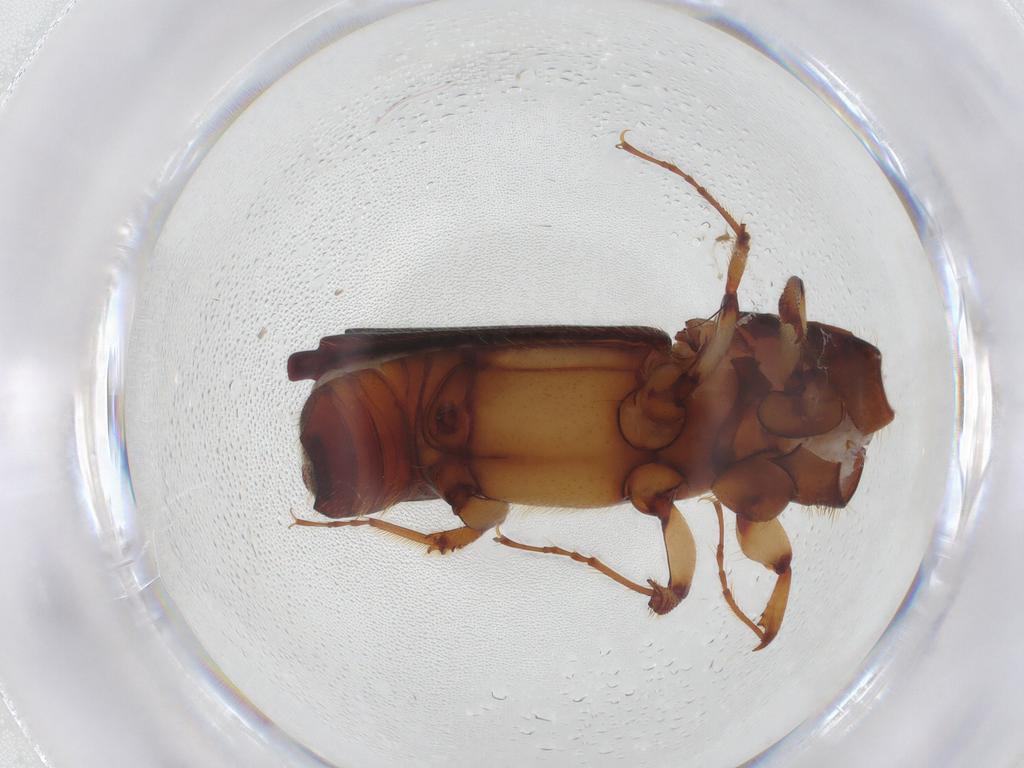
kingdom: Animalia
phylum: Arthropoda
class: Insecta
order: Coleoptera
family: Curculionidae
